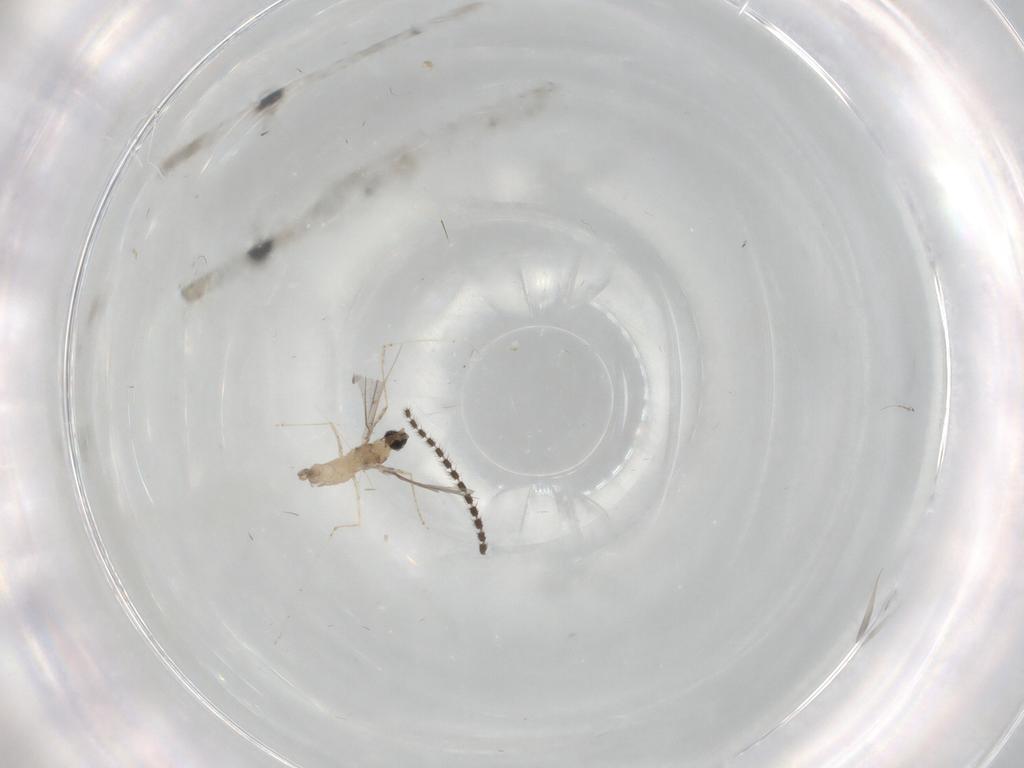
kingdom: Animalia
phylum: Arthropoda
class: Insecta
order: Diptera
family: Cecidomyiidae
